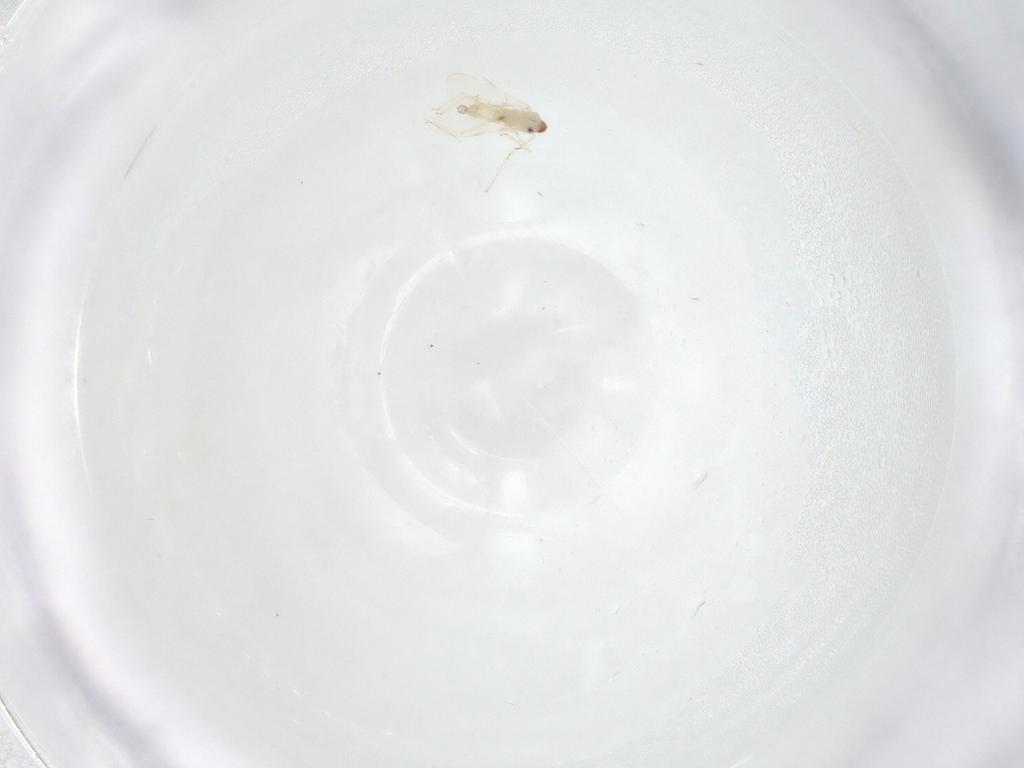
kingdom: Animalia
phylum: Arthropoda
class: Insecta
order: Diptera
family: Cecidomyiidae
